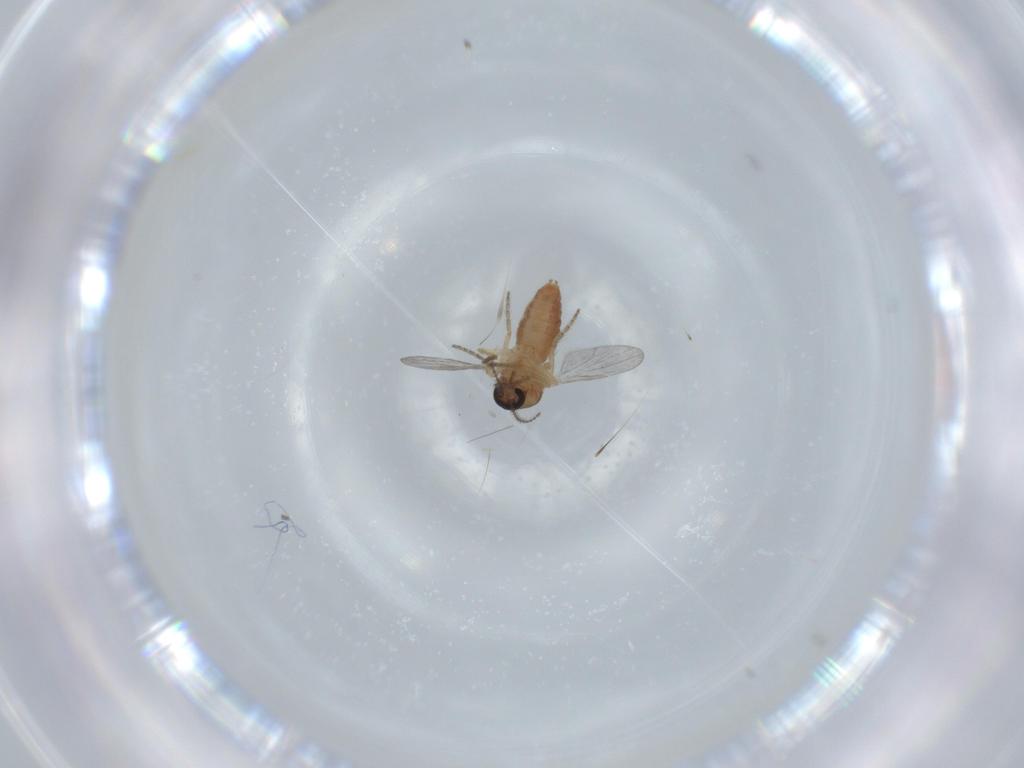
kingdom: Animalia
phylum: Arthropoda
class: Insecta
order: Diptera
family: Ceratopogonidae
